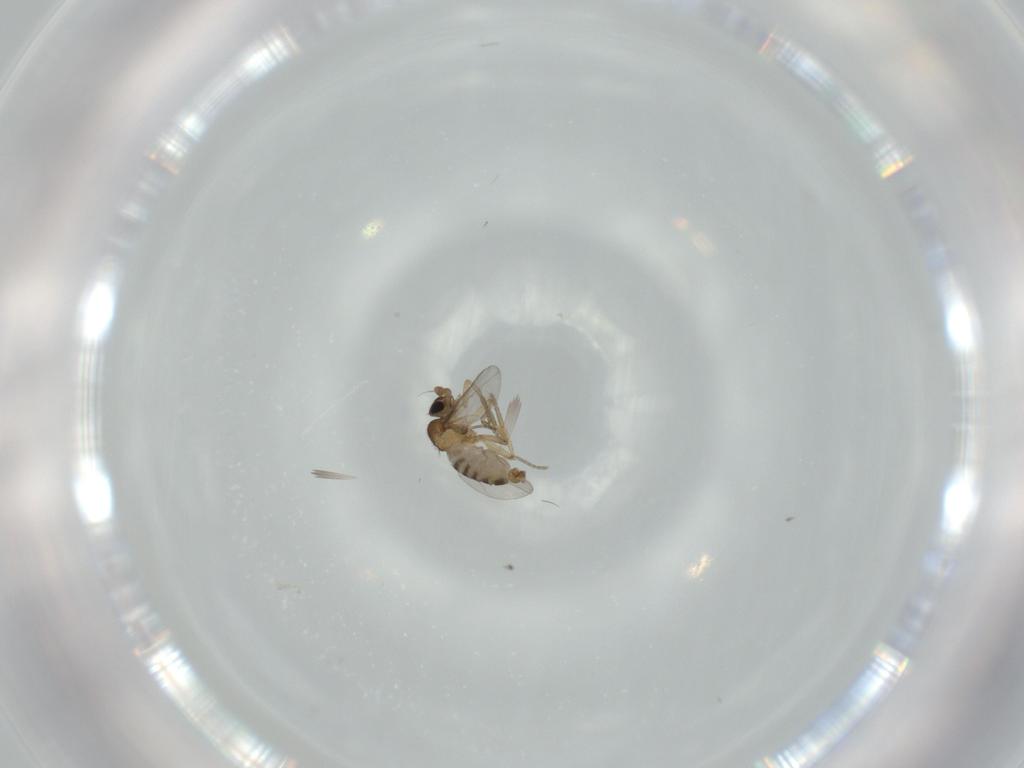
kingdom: Animalia
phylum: Arthropoda
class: Insecta
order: Diptera
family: Phoridae
